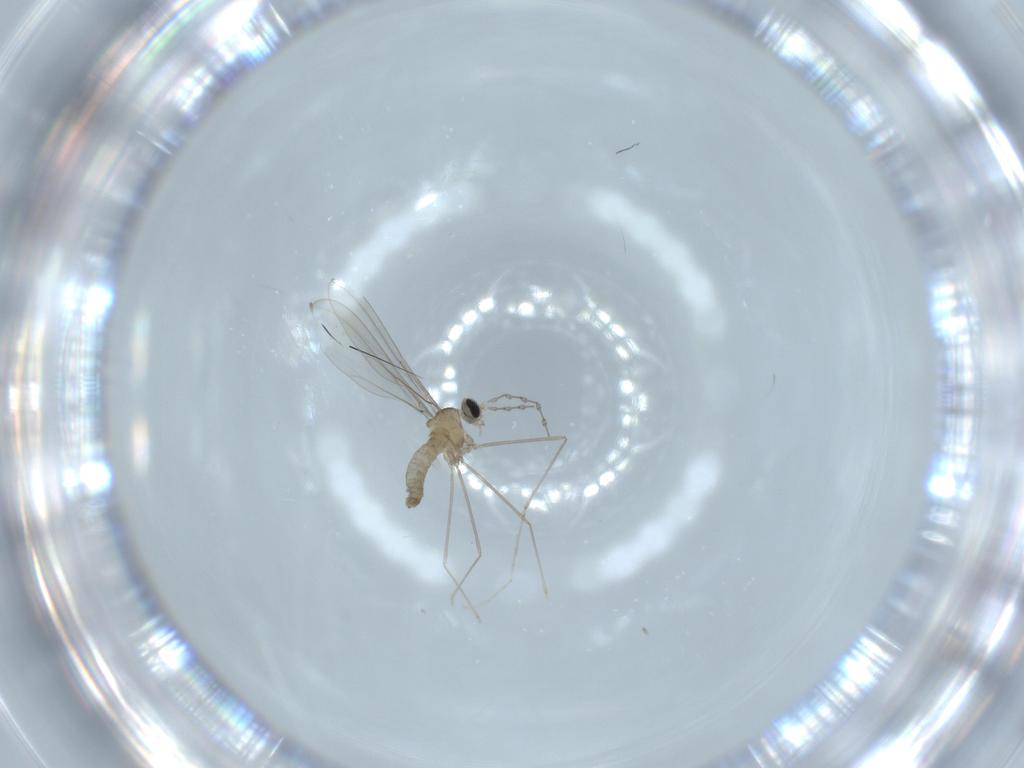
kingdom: Animalia
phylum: Arthropoda
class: Insecta
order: Diptera
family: Cecidomyiidae
